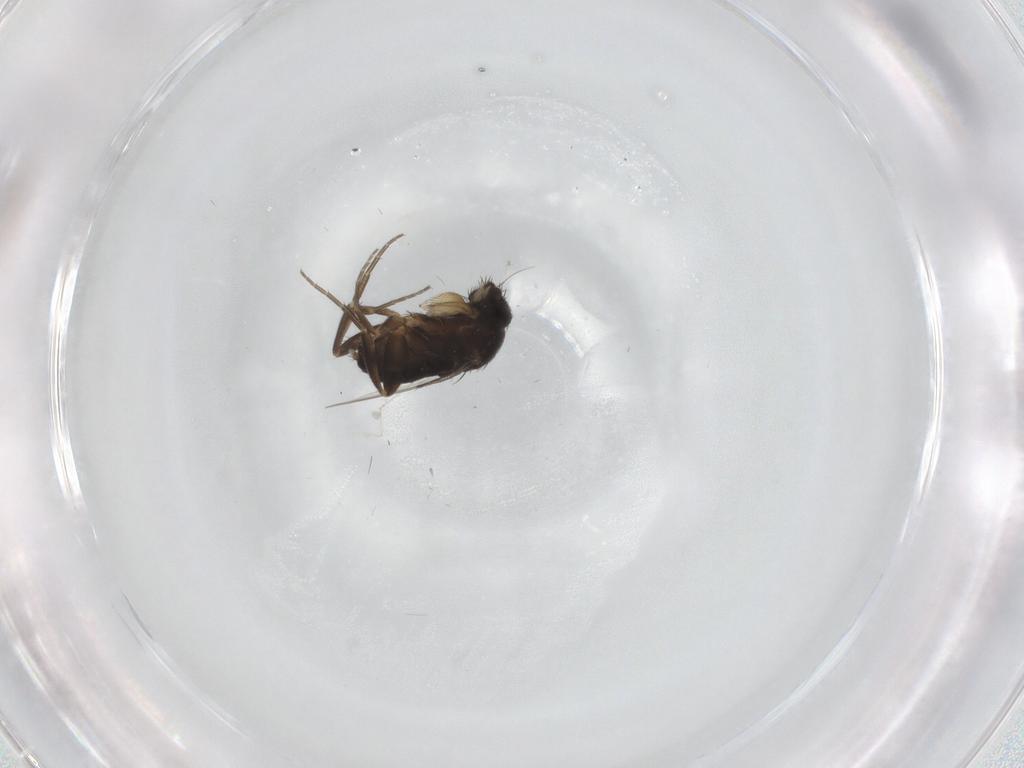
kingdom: Animalia
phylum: Arthropoda
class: Insecta
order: Diptera
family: Cecidomyiidae
